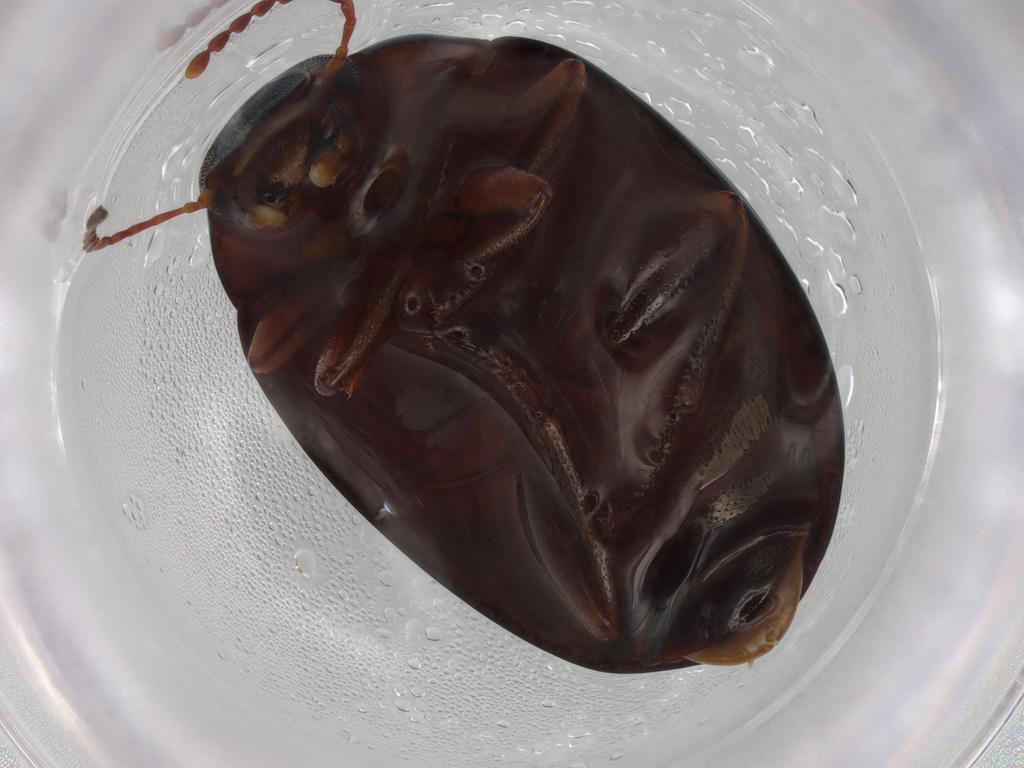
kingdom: Animalia
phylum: Arthropoda
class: Insecta
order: Coleoptera
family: Tenebrionidae
